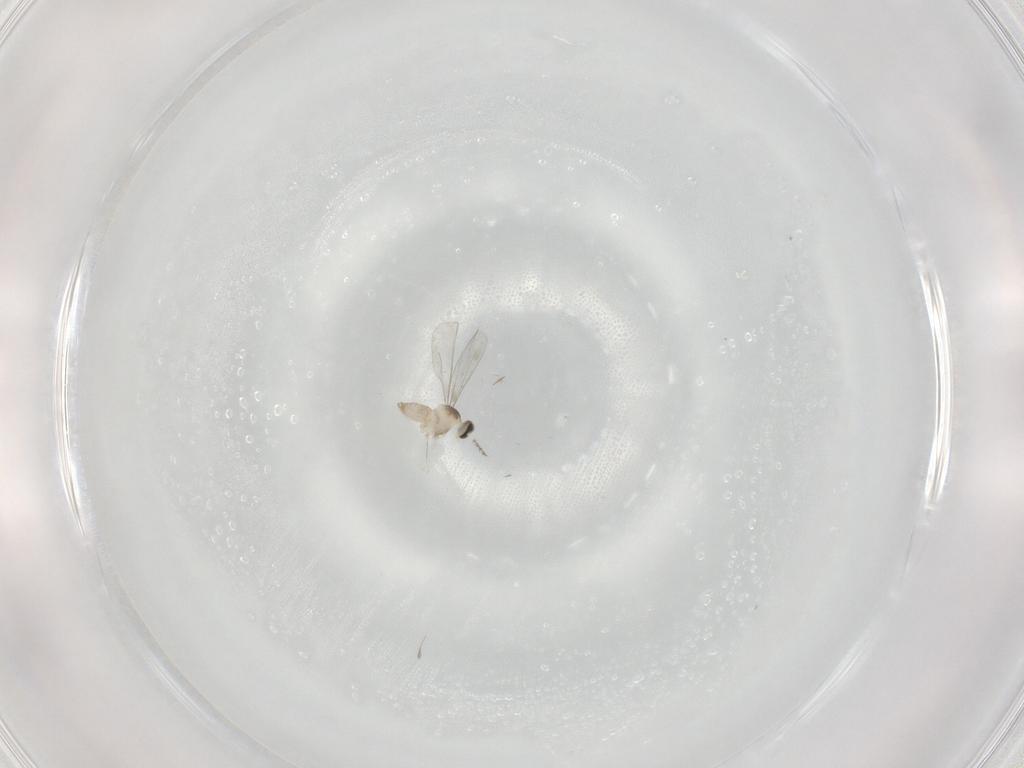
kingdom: Animalia
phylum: Arthropoda
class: Insecta
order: Diptera
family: Cecidomyiidae
